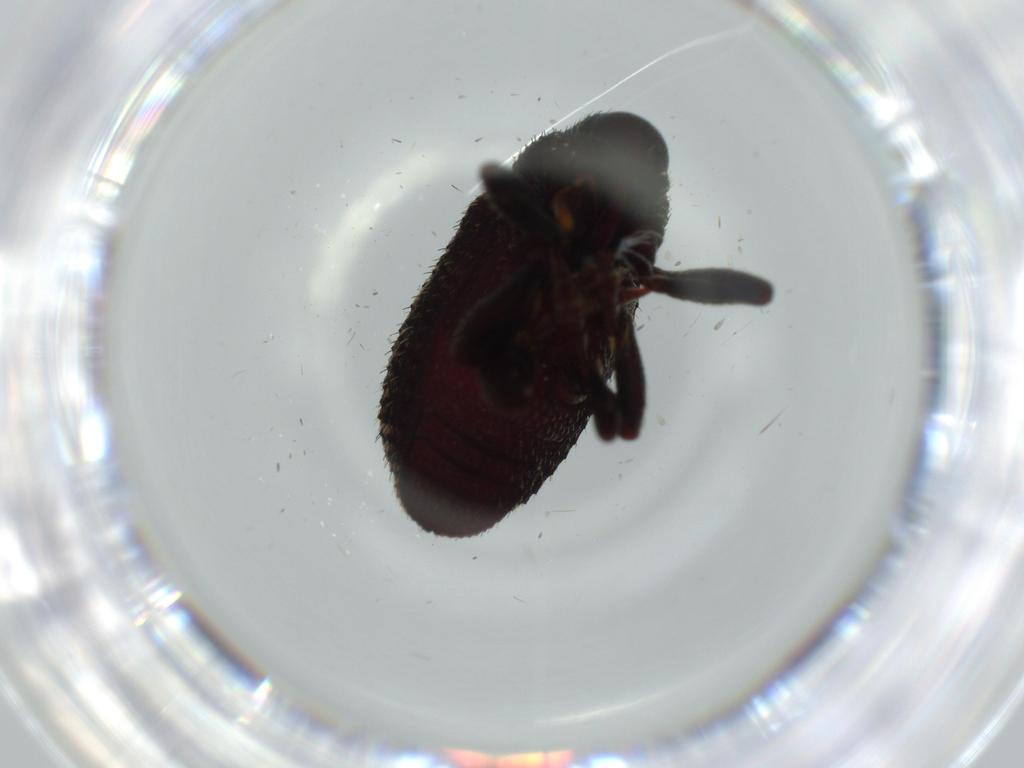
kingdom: Animalia
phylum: Arthropoda
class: Insecta
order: Coleoptera
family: Curculionidae
